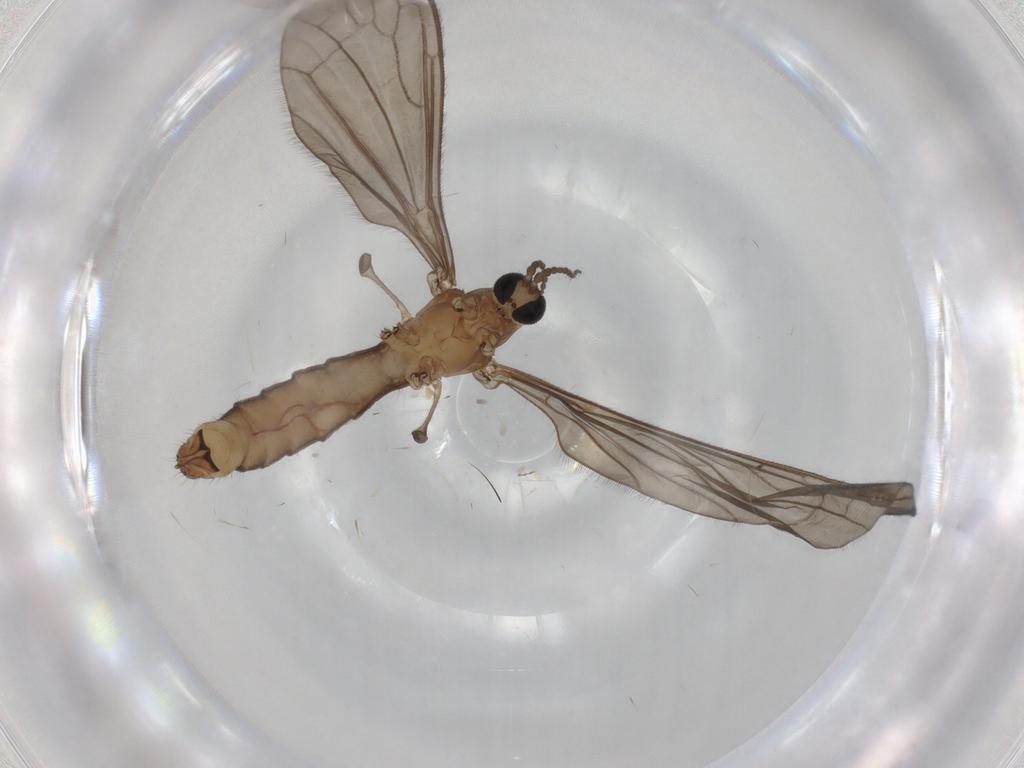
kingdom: Animalia
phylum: Arthropoda
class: Insecta
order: Diptera
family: Limoniidae
